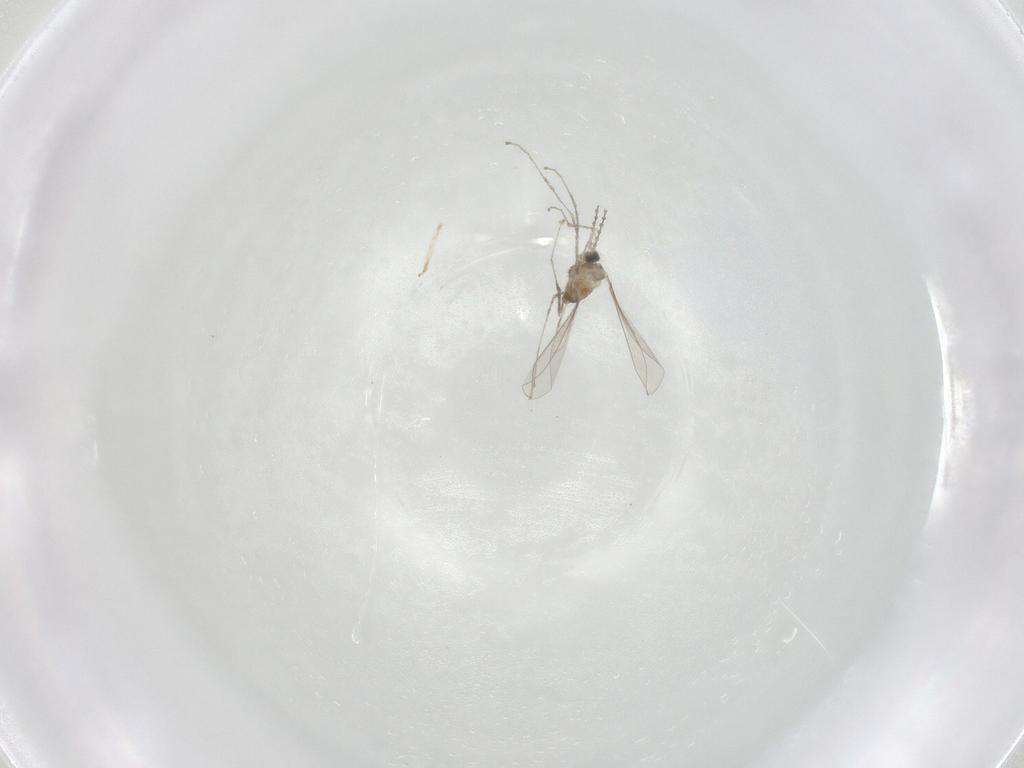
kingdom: Animalia
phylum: Arthropoda
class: Insecta
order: Diptera
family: Cecidomyiidae
